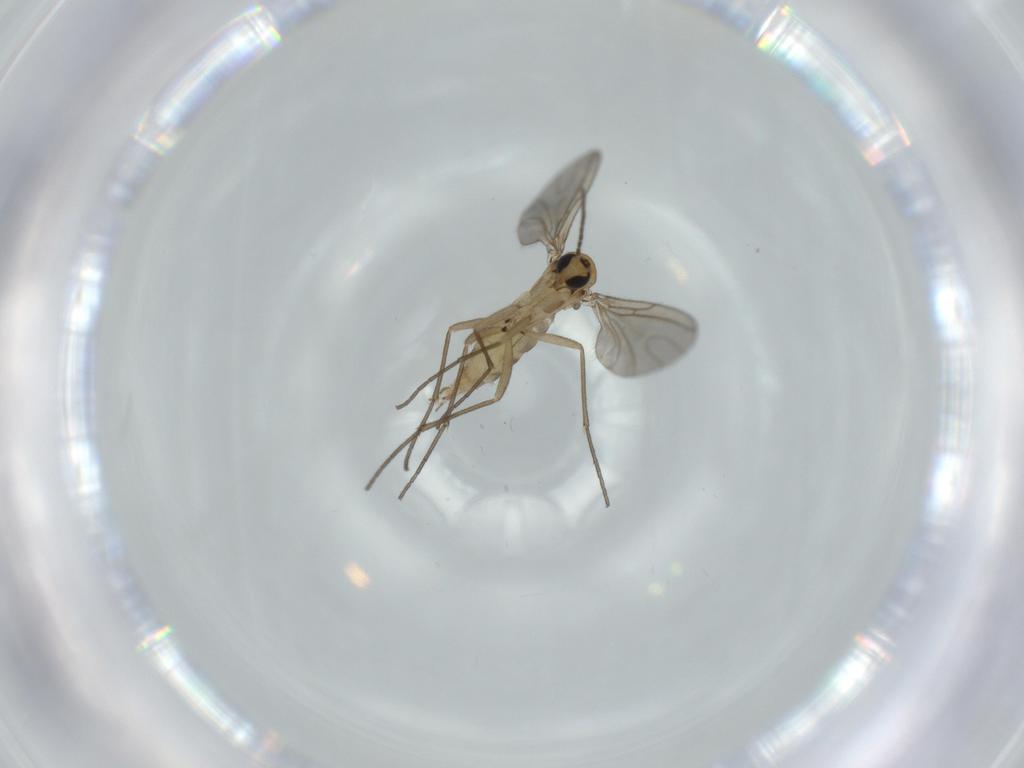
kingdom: Animalia
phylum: Arthropoda
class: Insecta
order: Diptera
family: Sciaridae
